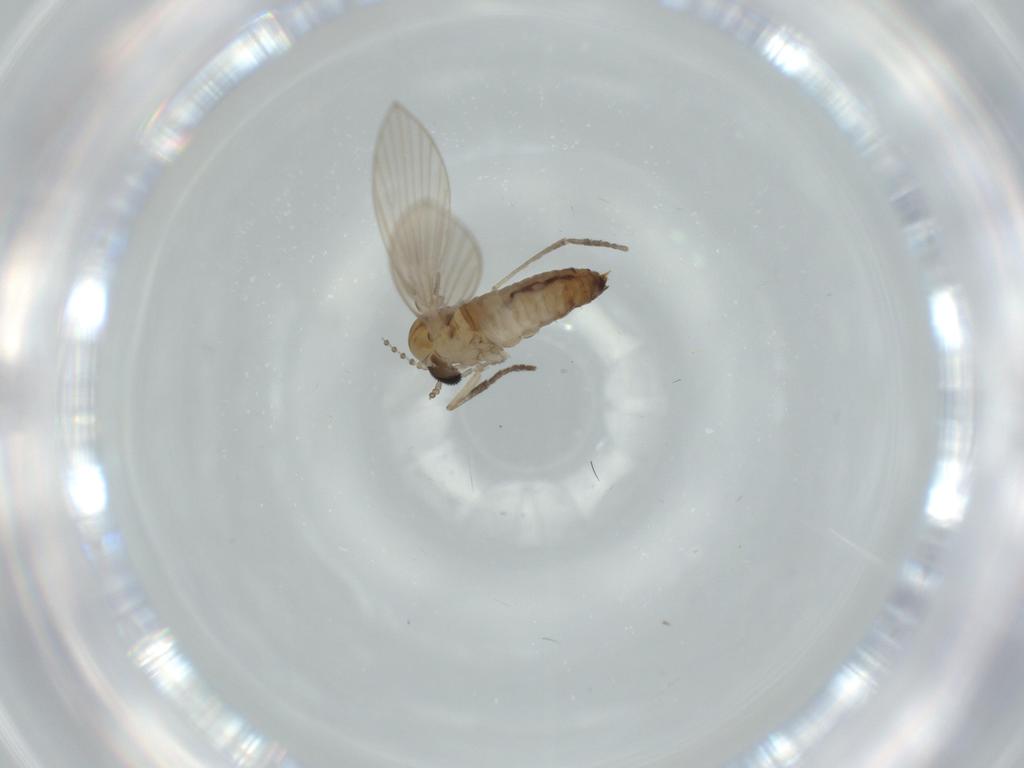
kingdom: Animalia
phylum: Arthropoda
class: Insecta
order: Diptera
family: Psychodidae
